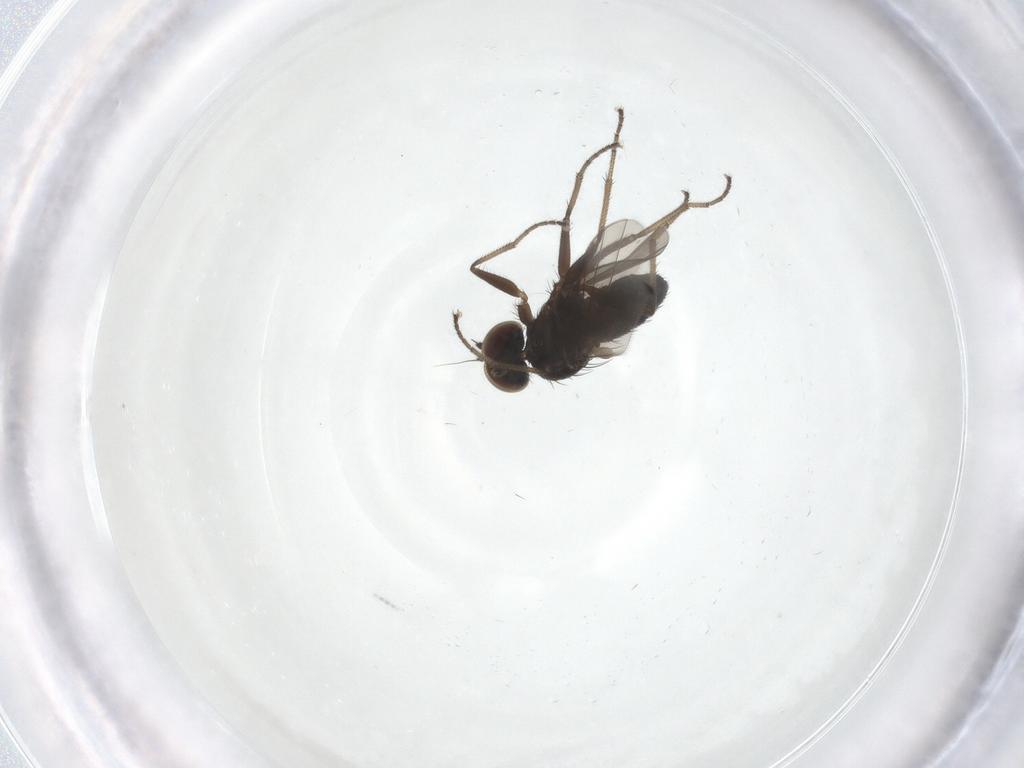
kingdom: Animalia
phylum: Arthropoda
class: Insecta
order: Diptera
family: Dolichopodidae
